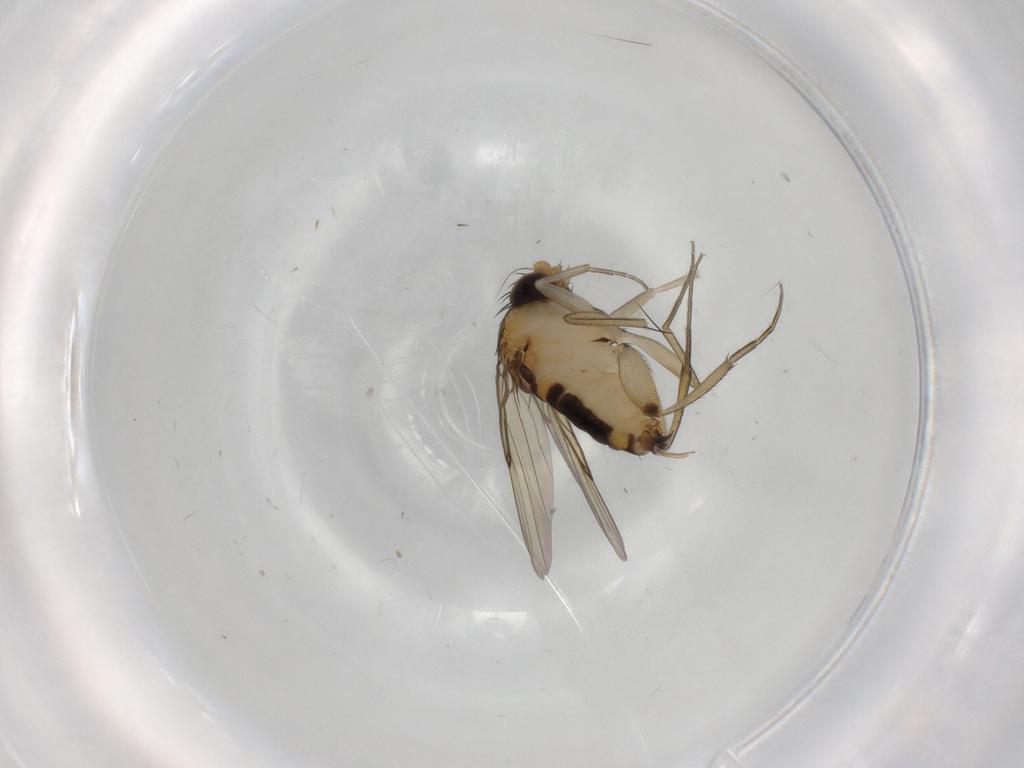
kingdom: Animalia
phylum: Arthropoda
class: Insecta
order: Diptera
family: Phoridae
